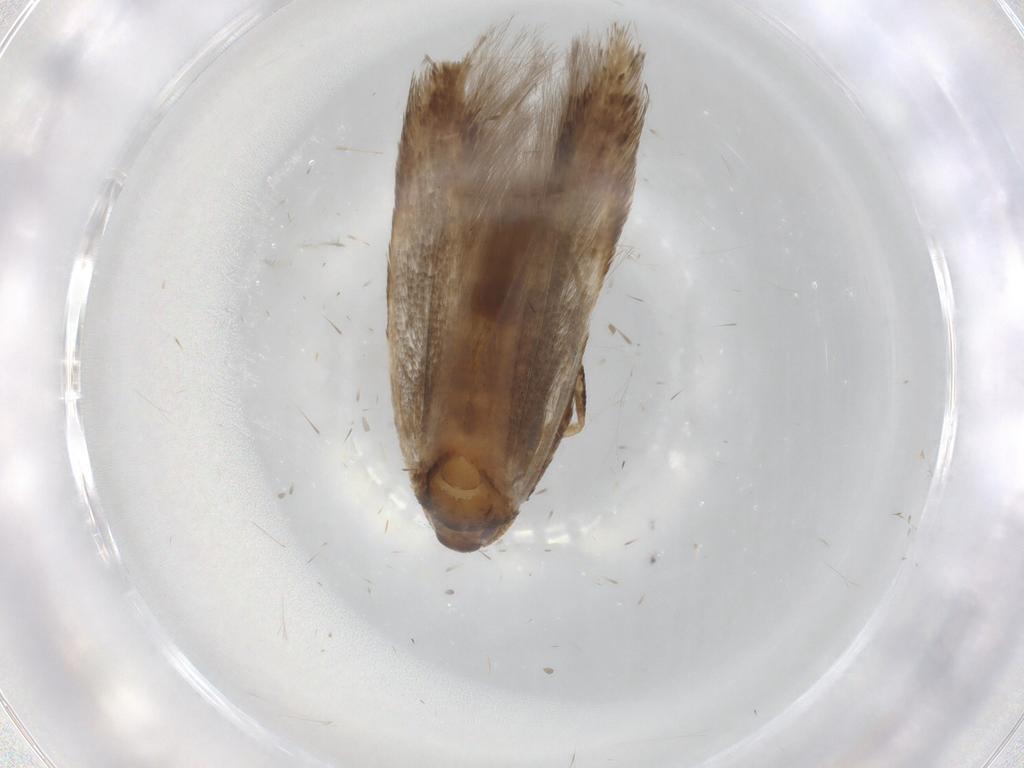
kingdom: Animalia
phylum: Arthropoda
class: Insecta
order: Lepidoptera
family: Cosmopterigidae
